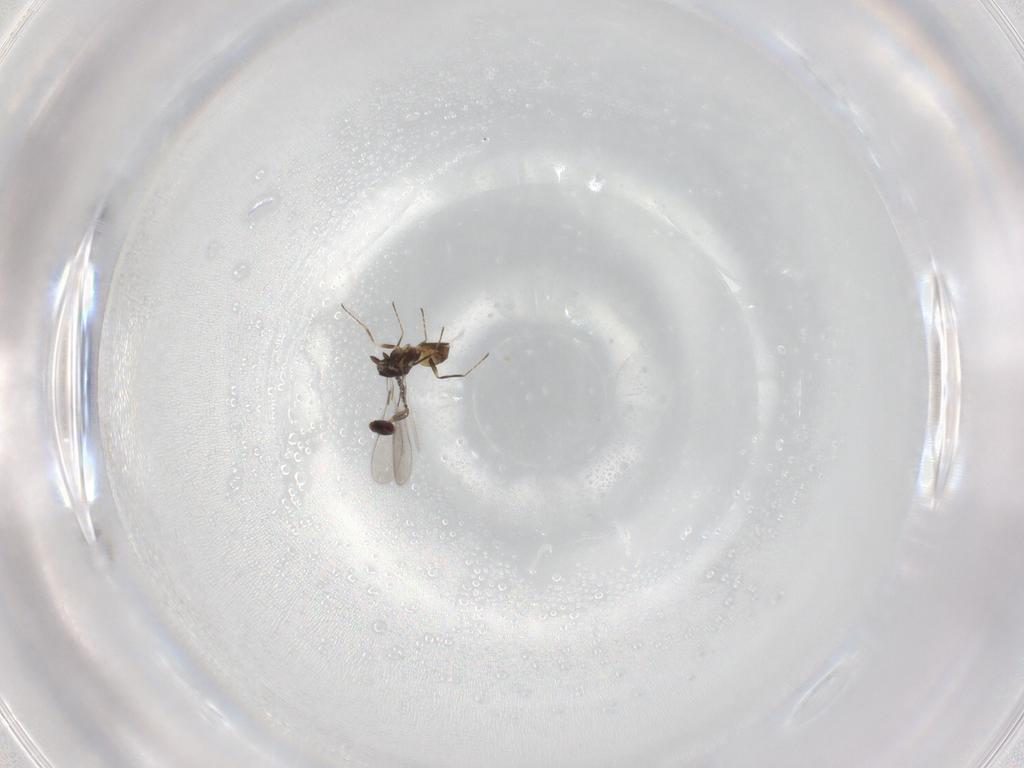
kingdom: Animalia
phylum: Arthropoda
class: Insecta
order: Hymenoptera
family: Mymaridae
